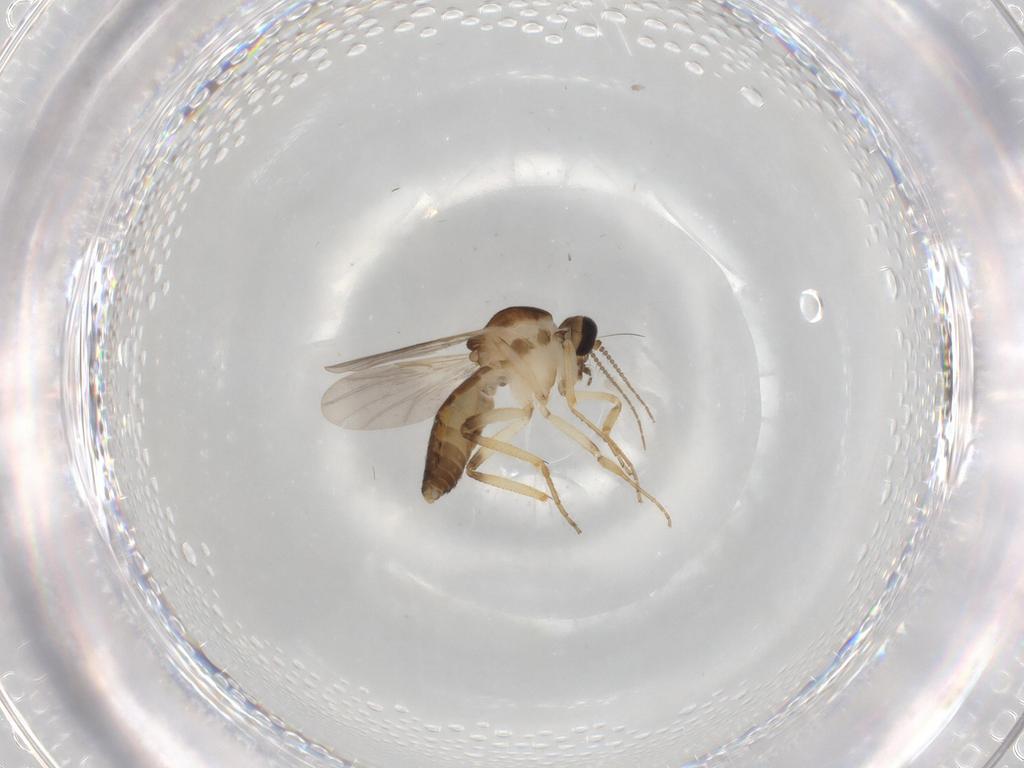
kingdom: Animalia
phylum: Arthropoda
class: Insecta
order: Diptera
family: Ceratopogonidae
